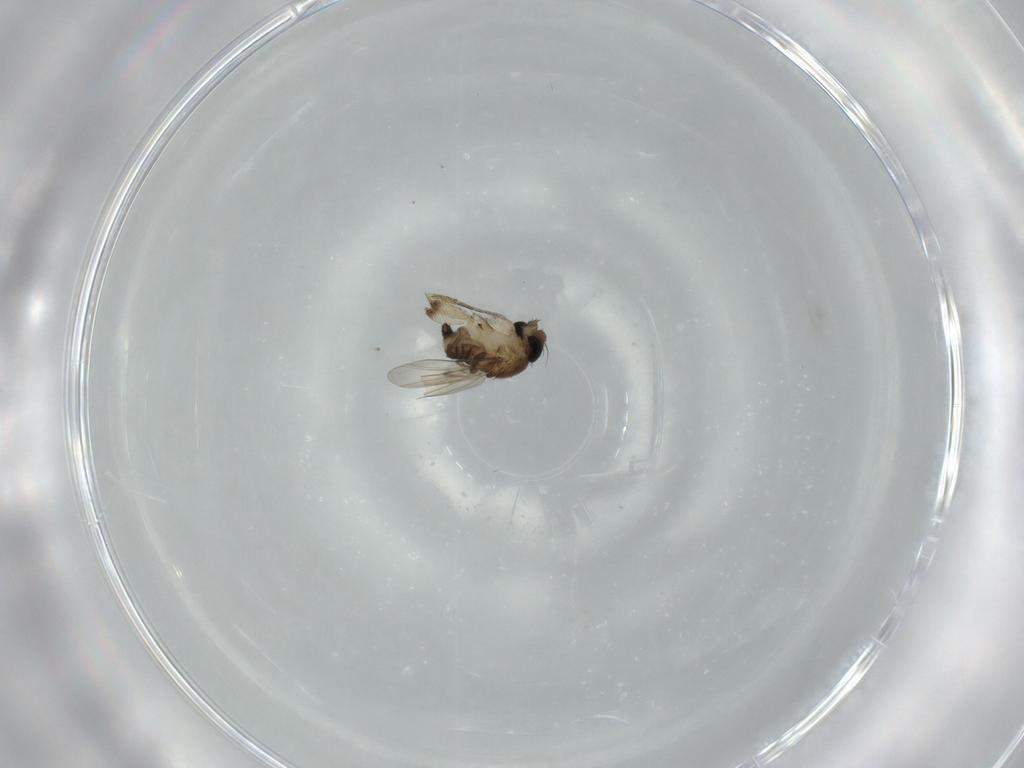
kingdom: Animalia
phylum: Arthropoda
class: Insecta
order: Diptera
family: Phoridae
